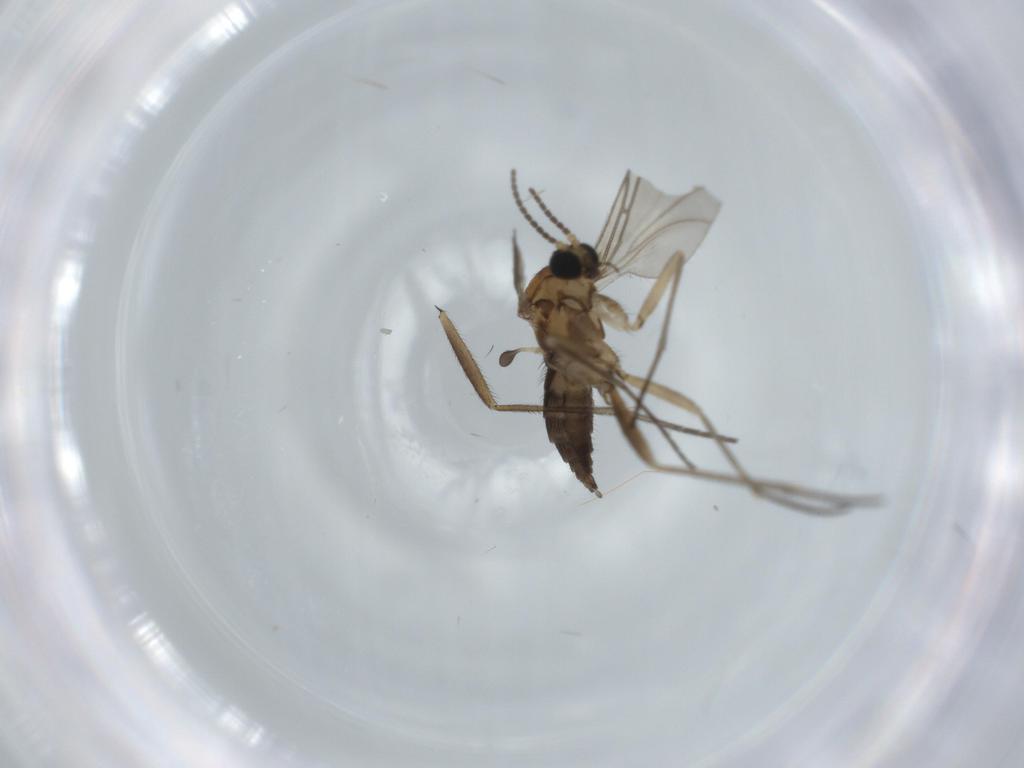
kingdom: Animalia
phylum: Arthropoda
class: Insecta
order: Diptera
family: Sciaridae
